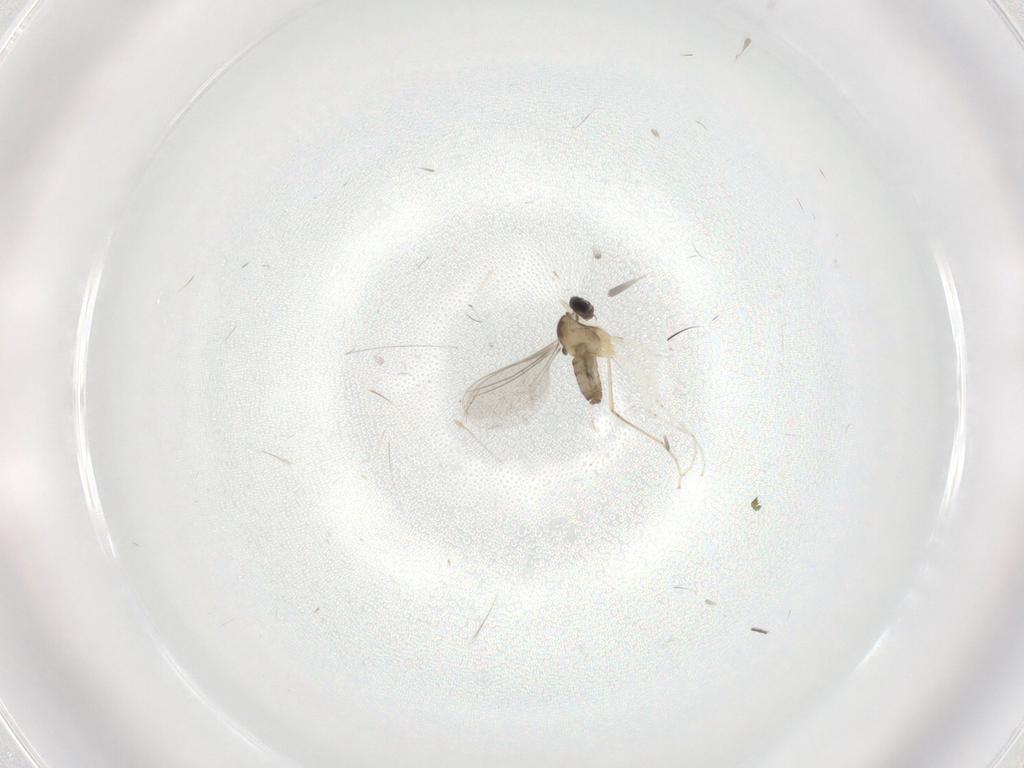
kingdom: Animalia
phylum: Arthropoda
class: Insecta
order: Diptera
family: Cecidomyiidae
